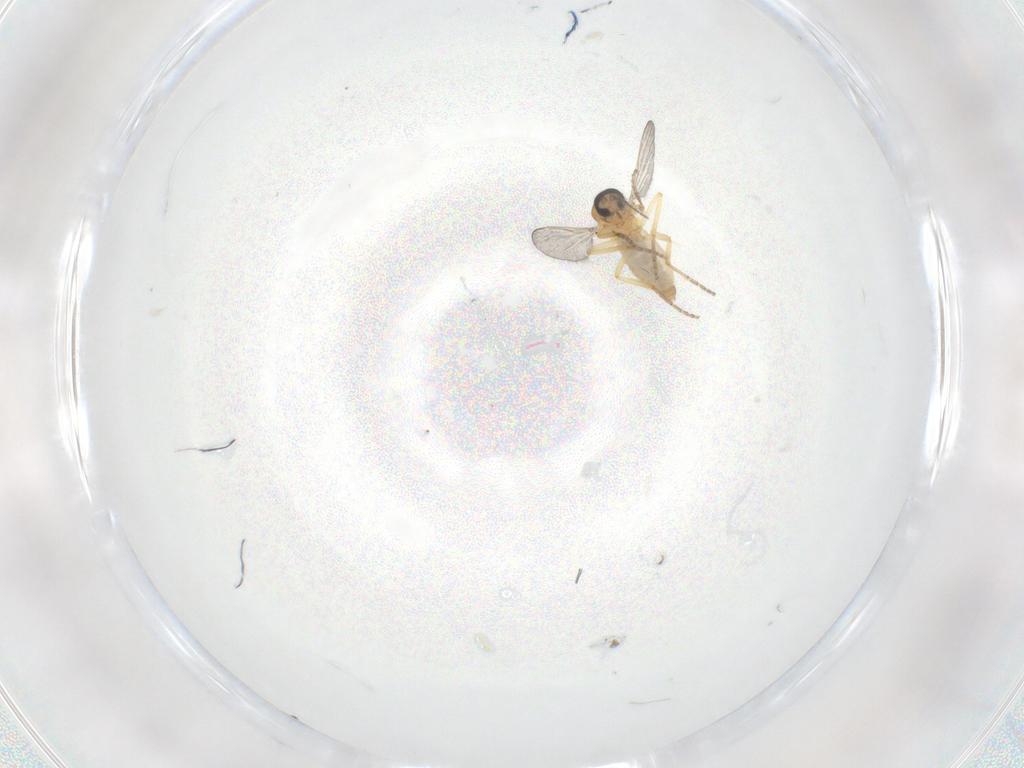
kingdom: Animalia
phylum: Arthropoda
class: Insecta
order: Diptera
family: Ceratopogonidae
